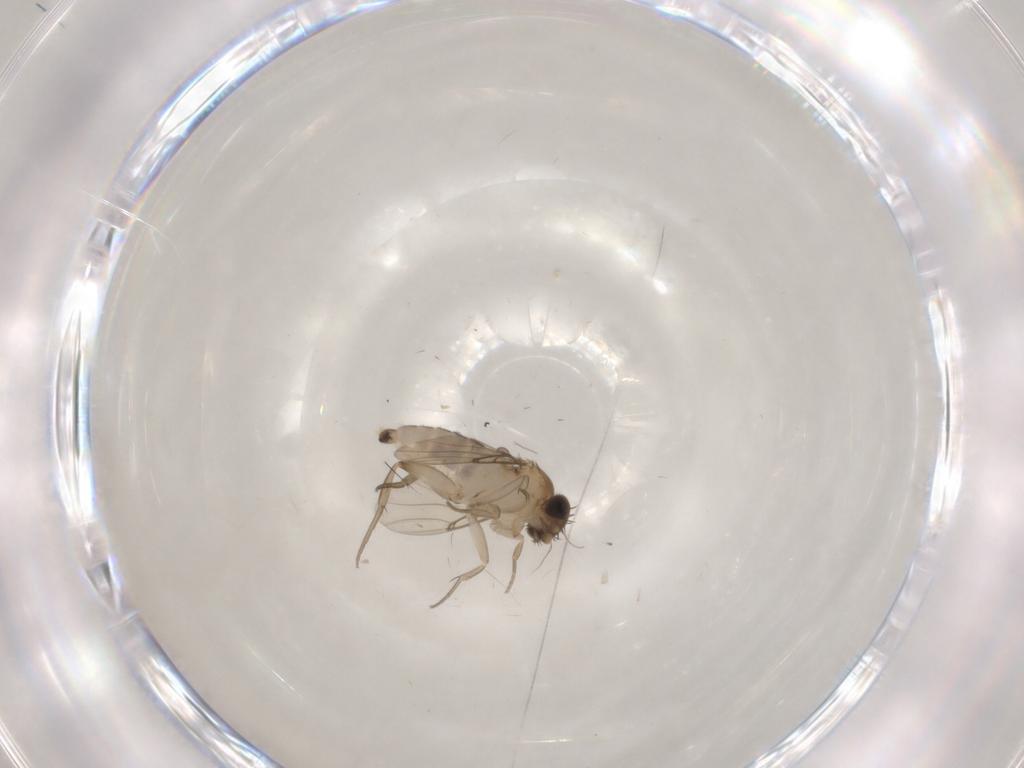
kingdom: Animalia
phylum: Arthropoda
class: Insecta
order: Diptera
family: Phoridae
